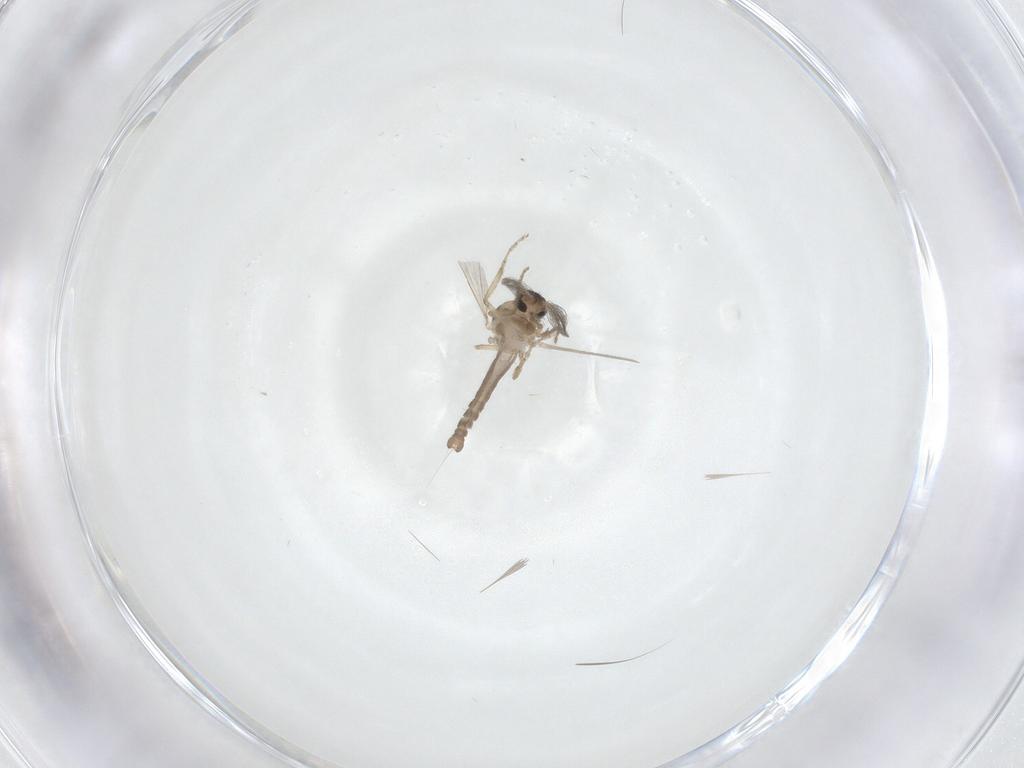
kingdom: Animalia
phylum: Arthropoda
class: Insecta
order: Diptera
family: Ceratopogonidae
